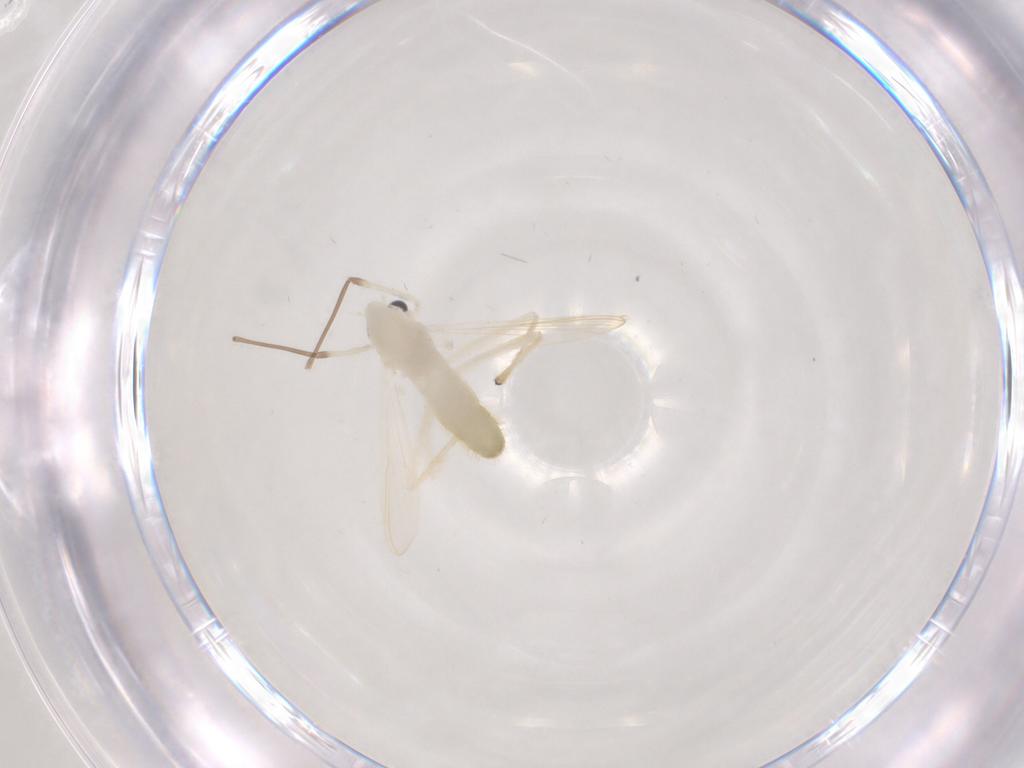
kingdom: Animalia
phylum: Arthropoda
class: Insecta
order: Diptera
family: Chironomidae
